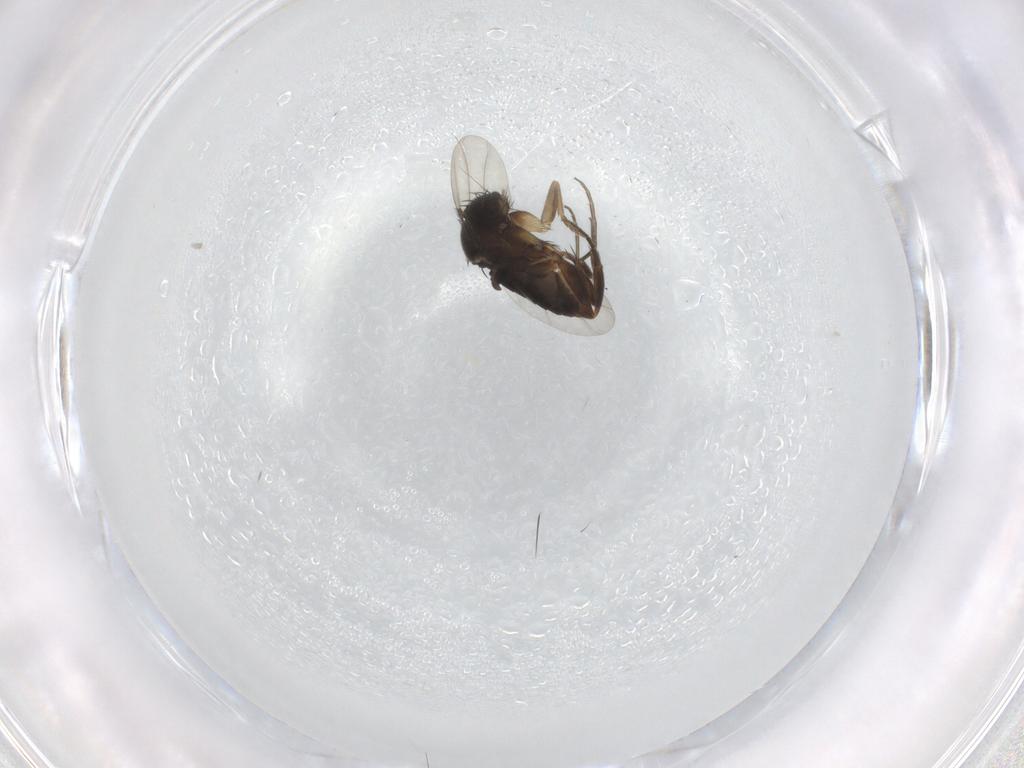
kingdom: Animalia
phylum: Arthropoda
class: Insecta
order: Diptera
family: Phoridae
